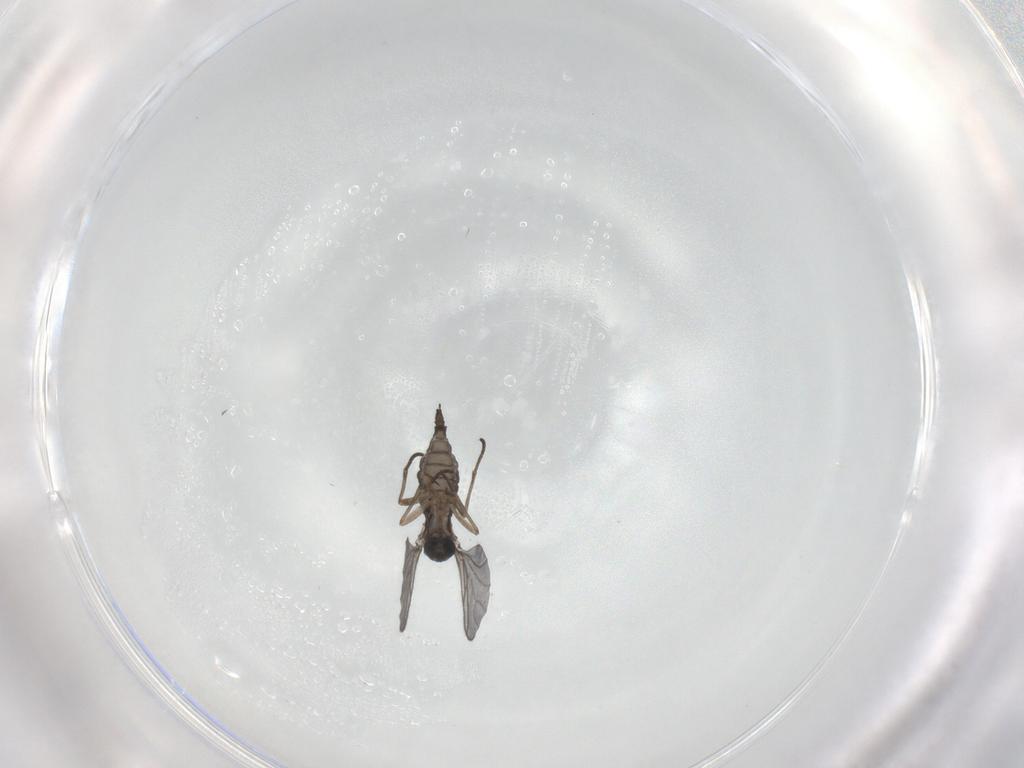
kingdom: Animalia
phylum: Arthropoda
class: Insecta
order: Diptera
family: Sciaridae
